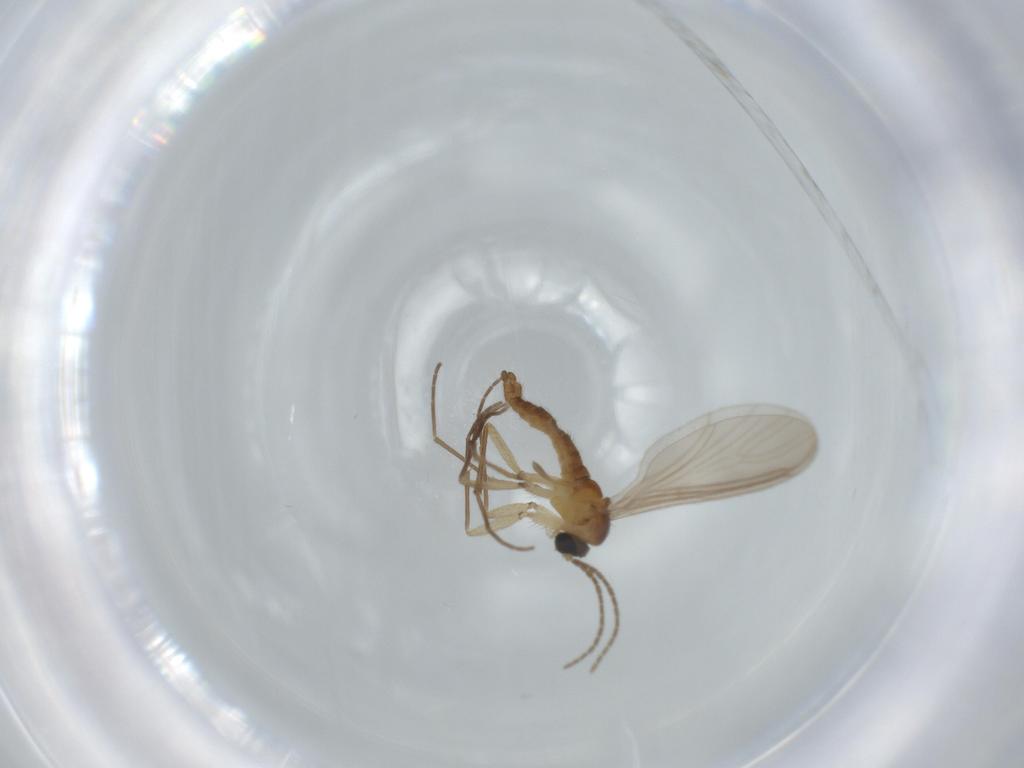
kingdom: Animalia
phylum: Arthropoda
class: Insecta
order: Diptera
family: Sciaridae
